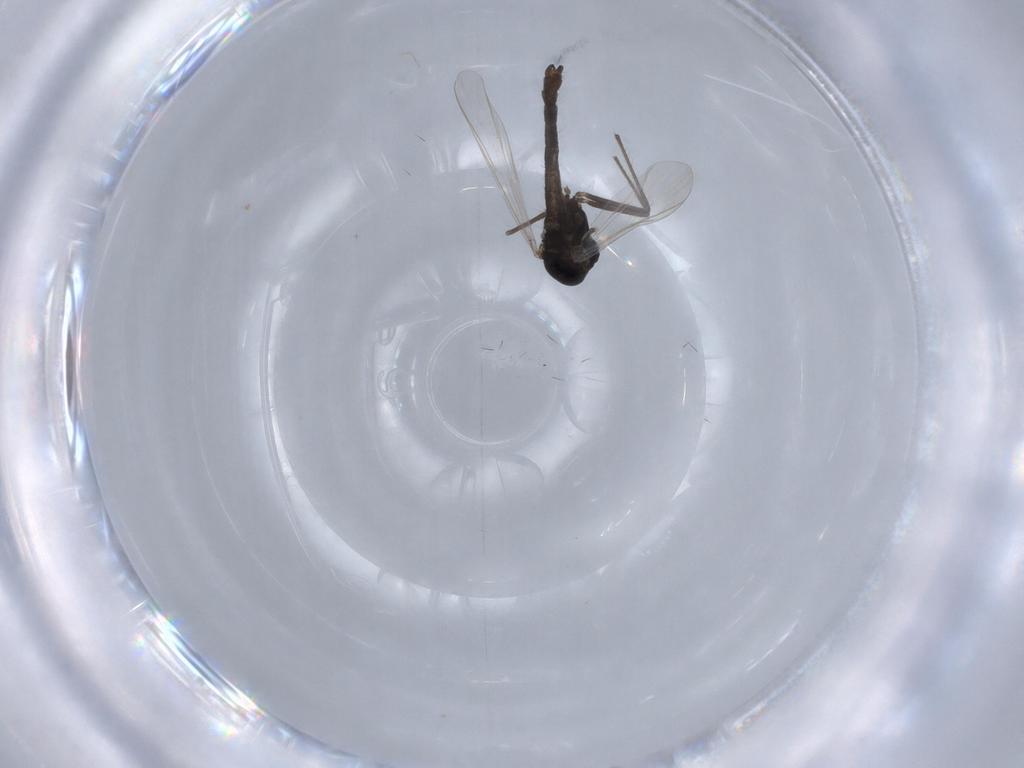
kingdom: Animalia
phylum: Arthropoda
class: Insecta
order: Diptera
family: Chironomidae
